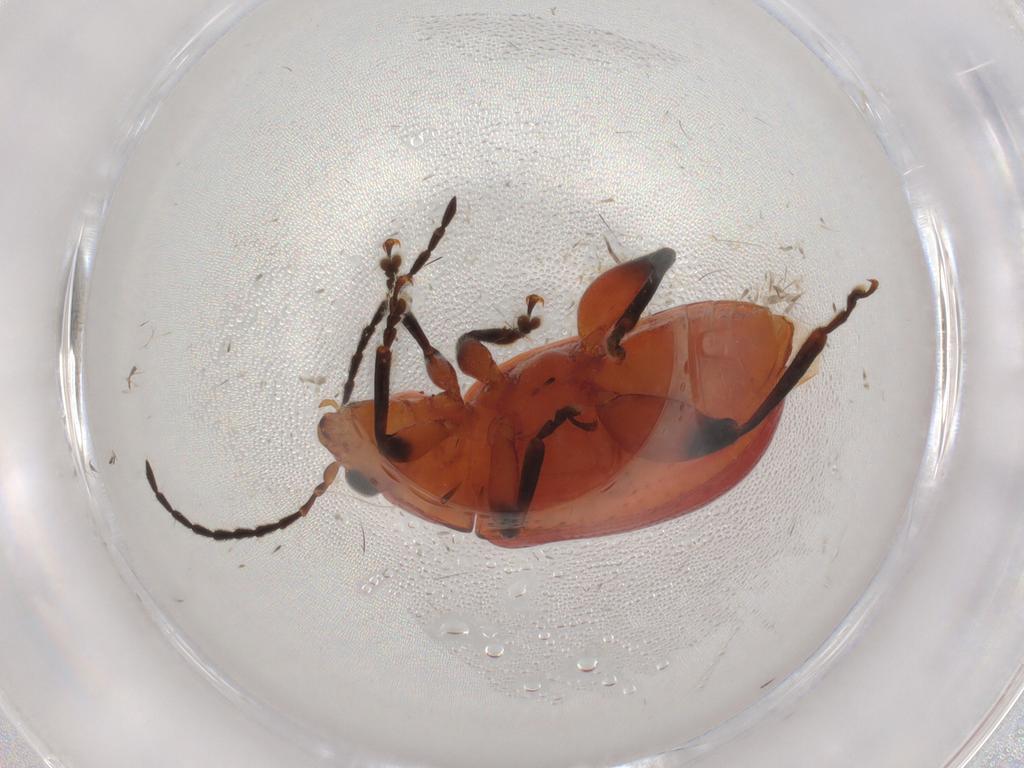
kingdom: Animalia
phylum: Arthropoda
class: Insecta
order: Coleoptera
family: Chrysomelidae
